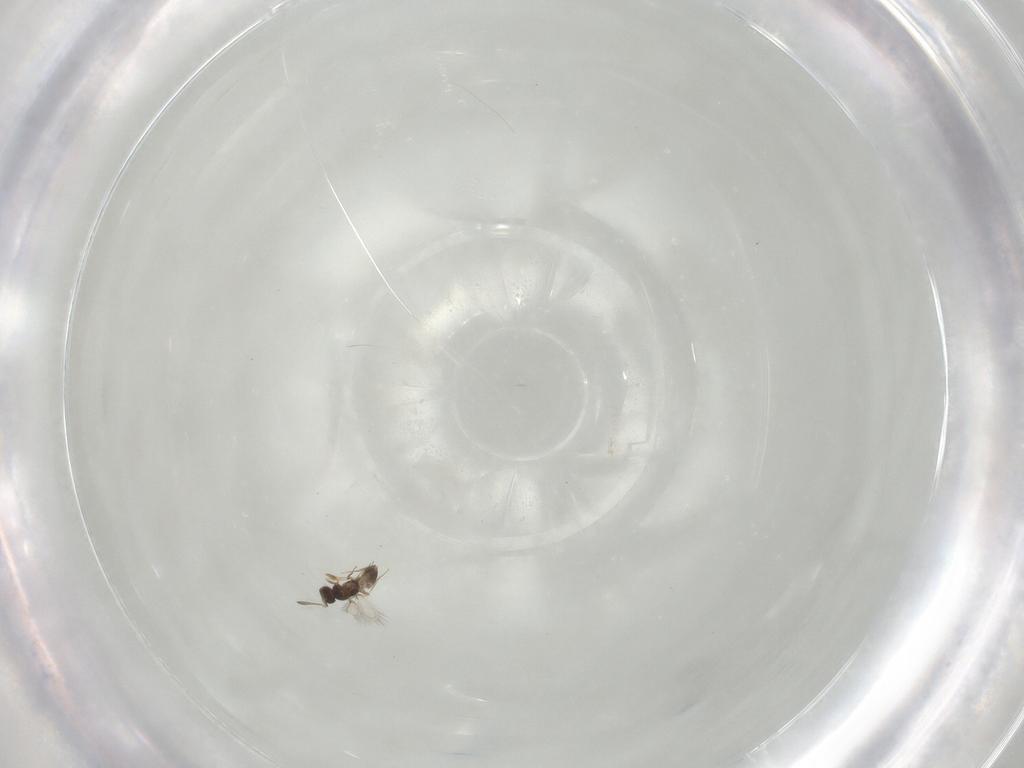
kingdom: Animalia
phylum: Arthropoda
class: Insecta
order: Hymenoptera
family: Mymaridae
